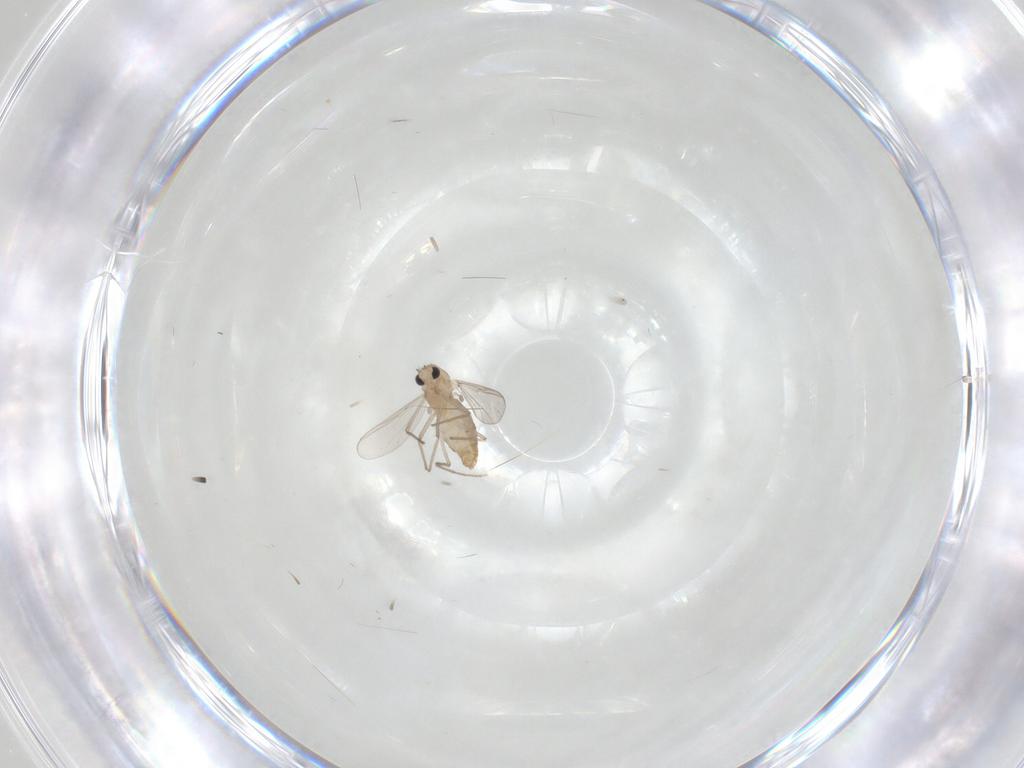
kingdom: Animalia
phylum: Arthropoda
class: Insecta
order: Diptera
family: Chironomidae
